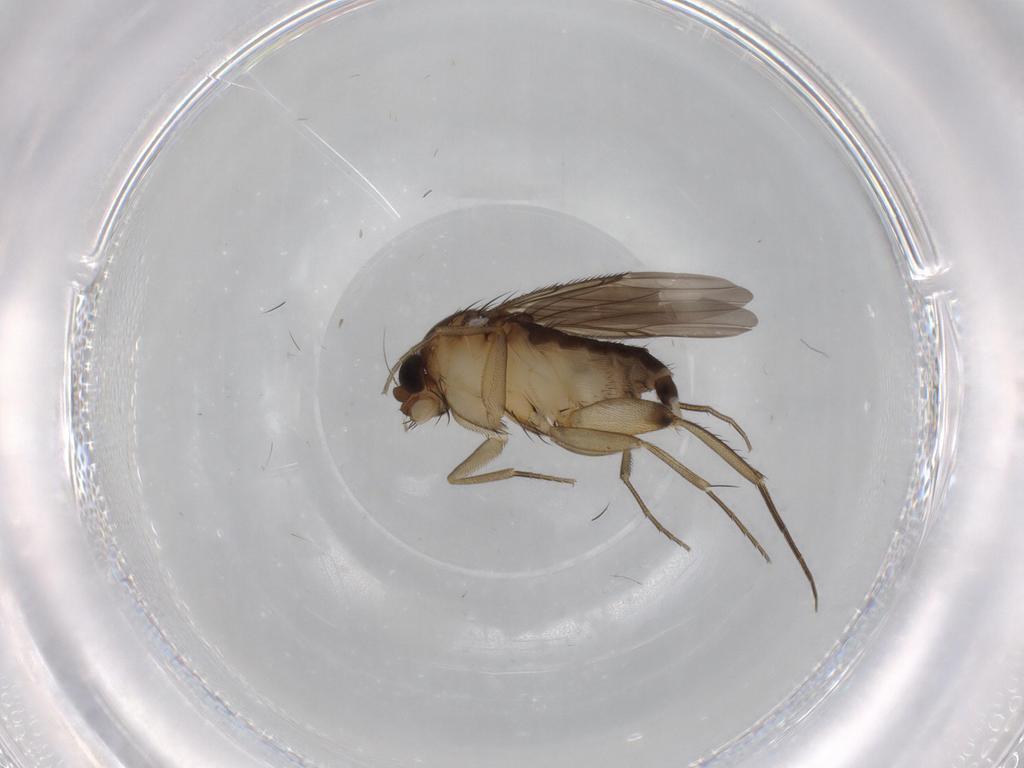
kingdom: Animalia
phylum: Arthropoda
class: Insecta
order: Diptera
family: Phoridae
